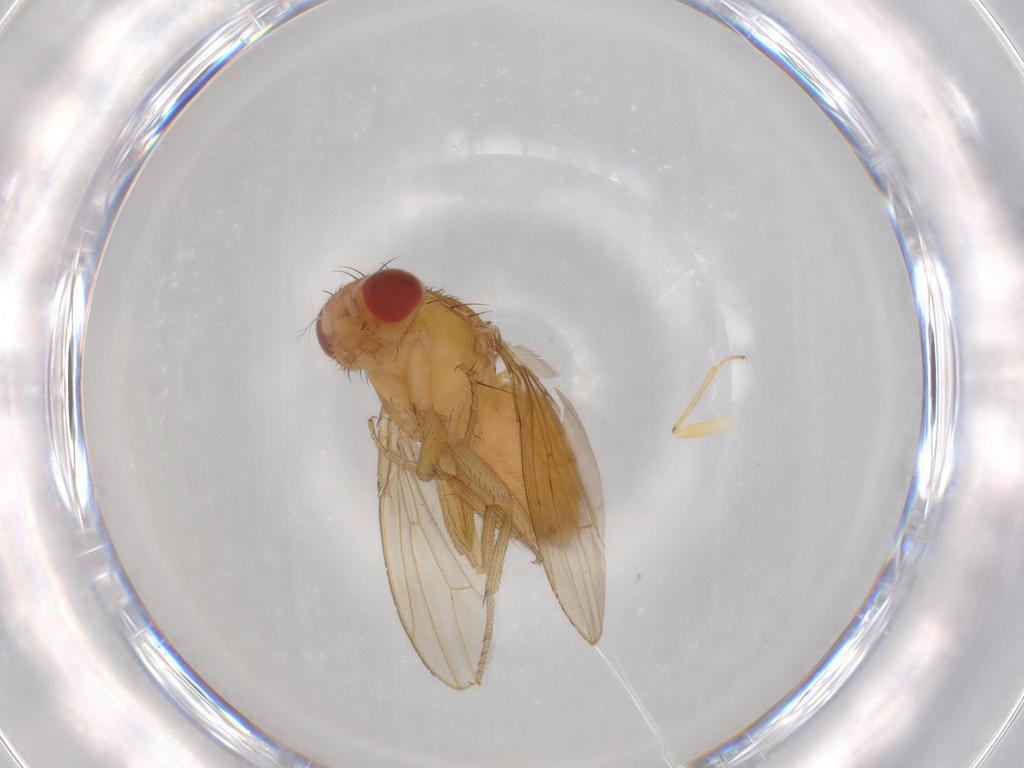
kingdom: Animalia
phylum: Arthropoda
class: Insecta
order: Diptera
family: Drosophilidae
